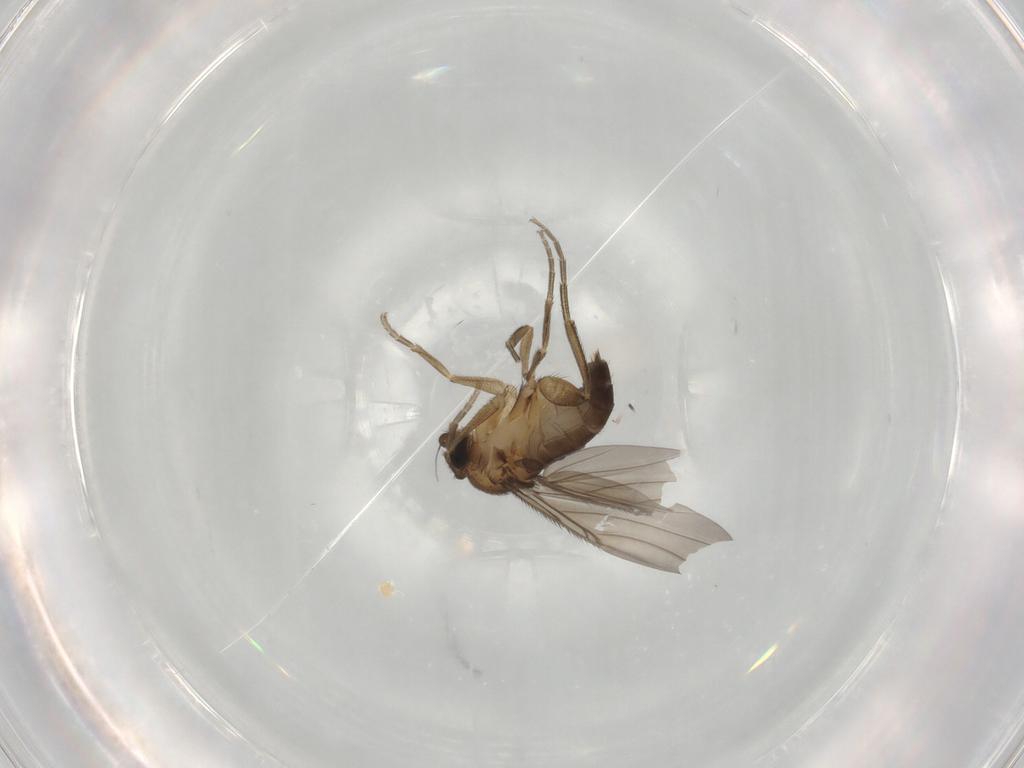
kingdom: Animalia
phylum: Arthropoda
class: Insecta
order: Diptera
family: Phoridae
